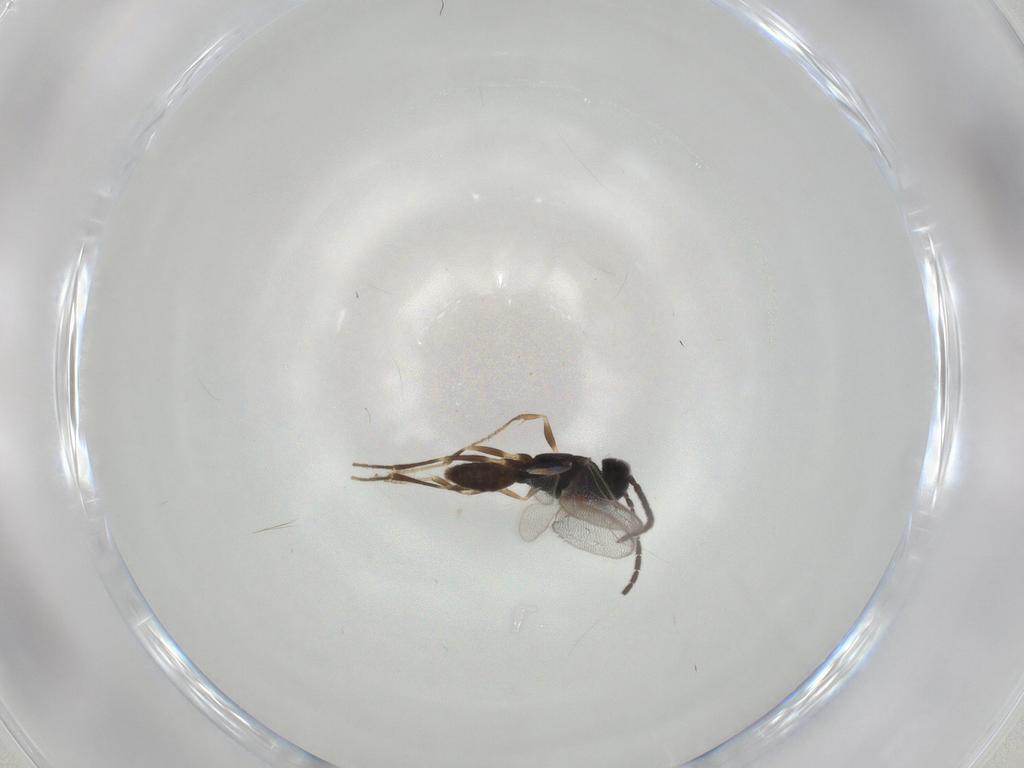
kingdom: Animalia
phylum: Arthropoda
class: Insecta
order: Hymenoptera
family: Dryinidae
